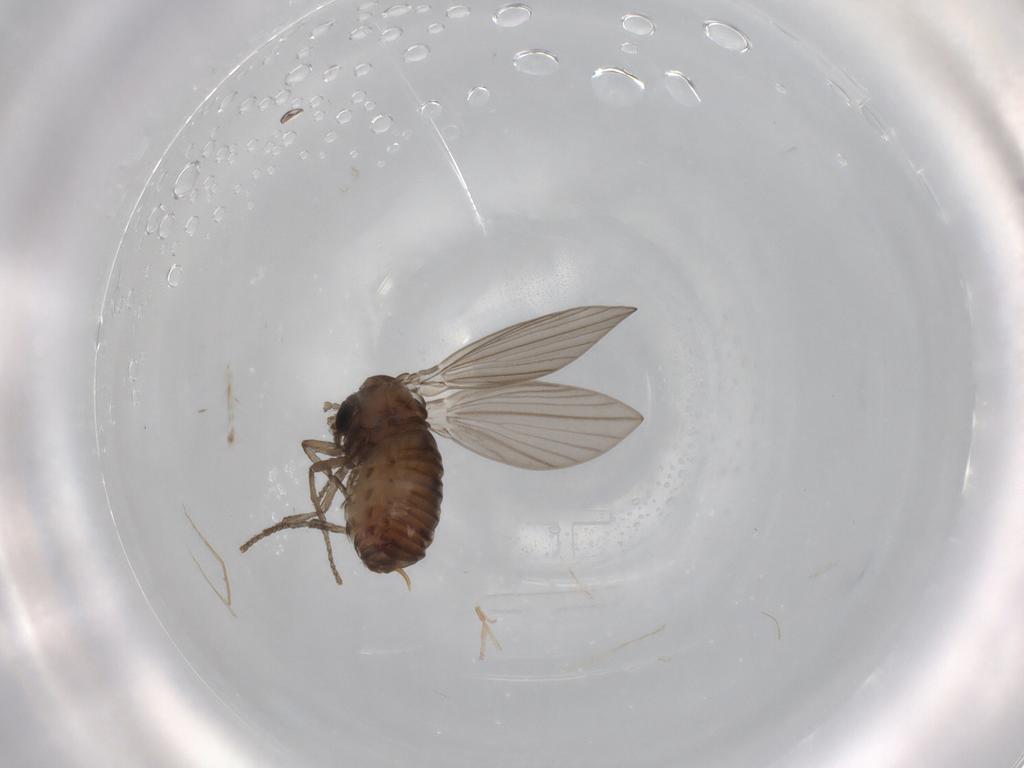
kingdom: Animalia
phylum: Arthropoda
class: Insecta
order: Diptera
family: Psychodidae
